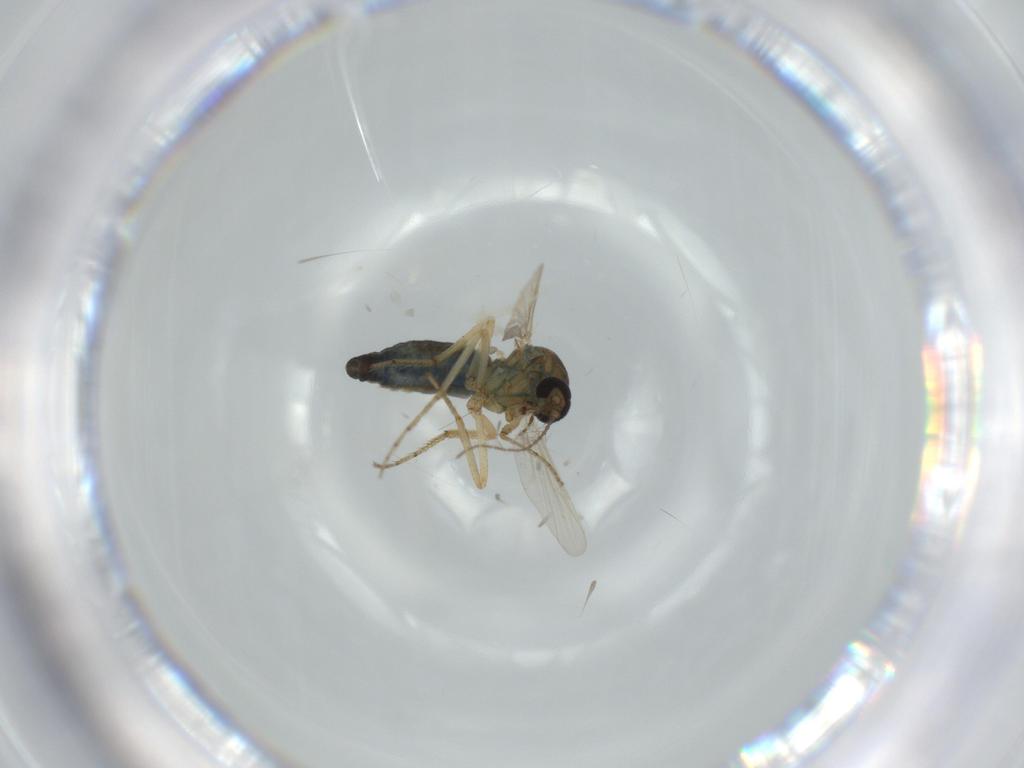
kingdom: Animalia
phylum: Arthropoda
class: Insecta
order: Diptera
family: Ceratopogonidae
